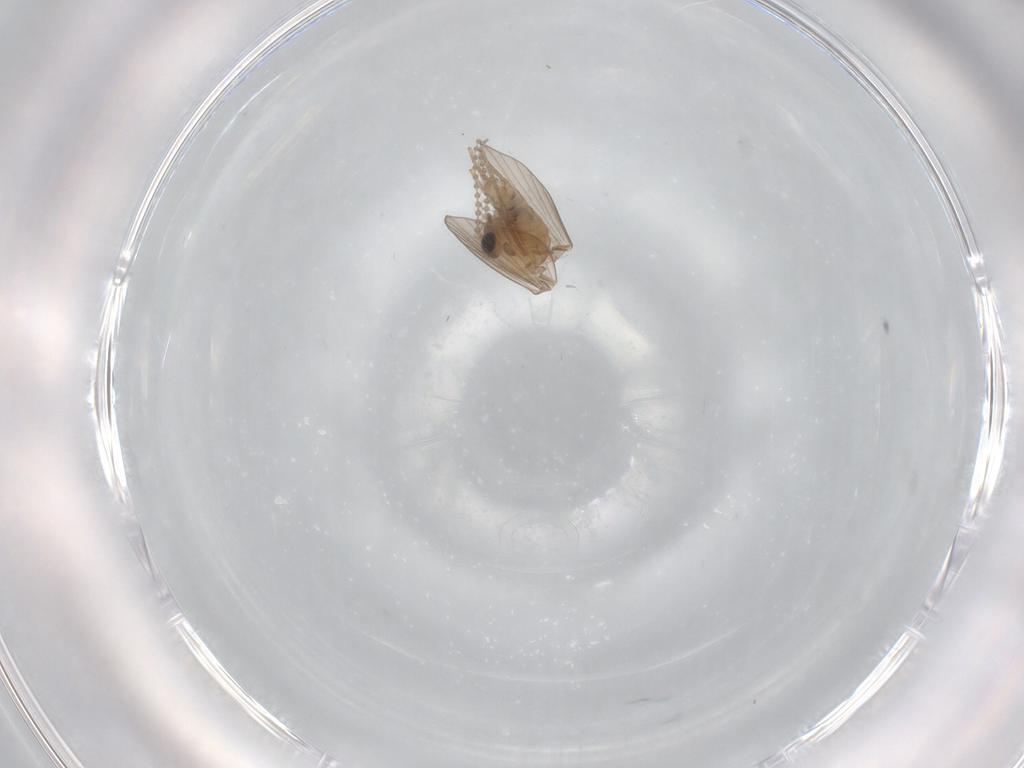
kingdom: Animalia
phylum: Arthropoda
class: Insecta
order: Diptera
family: Psychodidae
